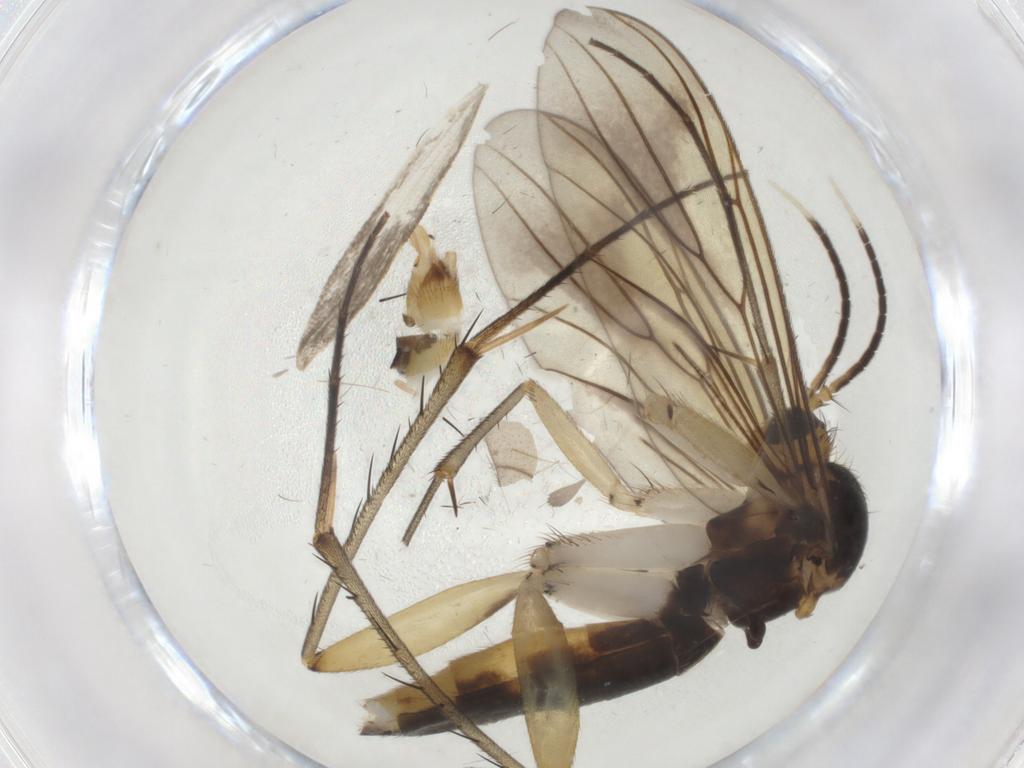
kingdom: Animalia
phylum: Arthropoda
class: Insecta
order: Diptera
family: Mycetophilidae
